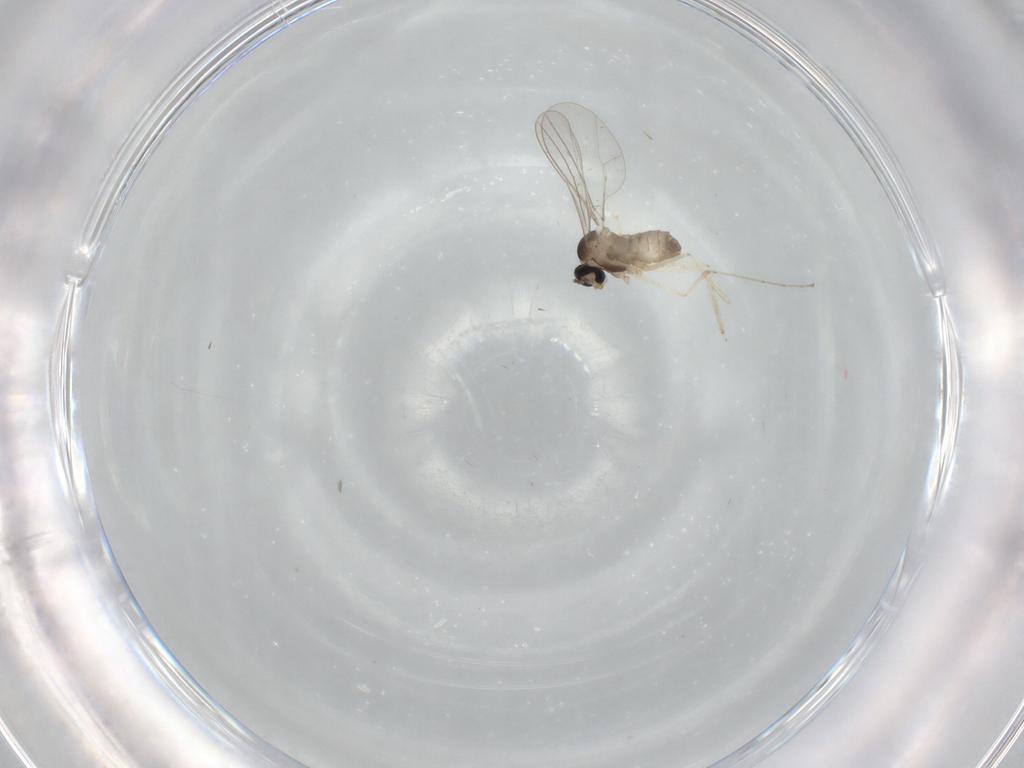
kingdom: Animalia
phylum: Arthropoda
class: Insecta
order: Diptera
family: Cecidomyiidae
